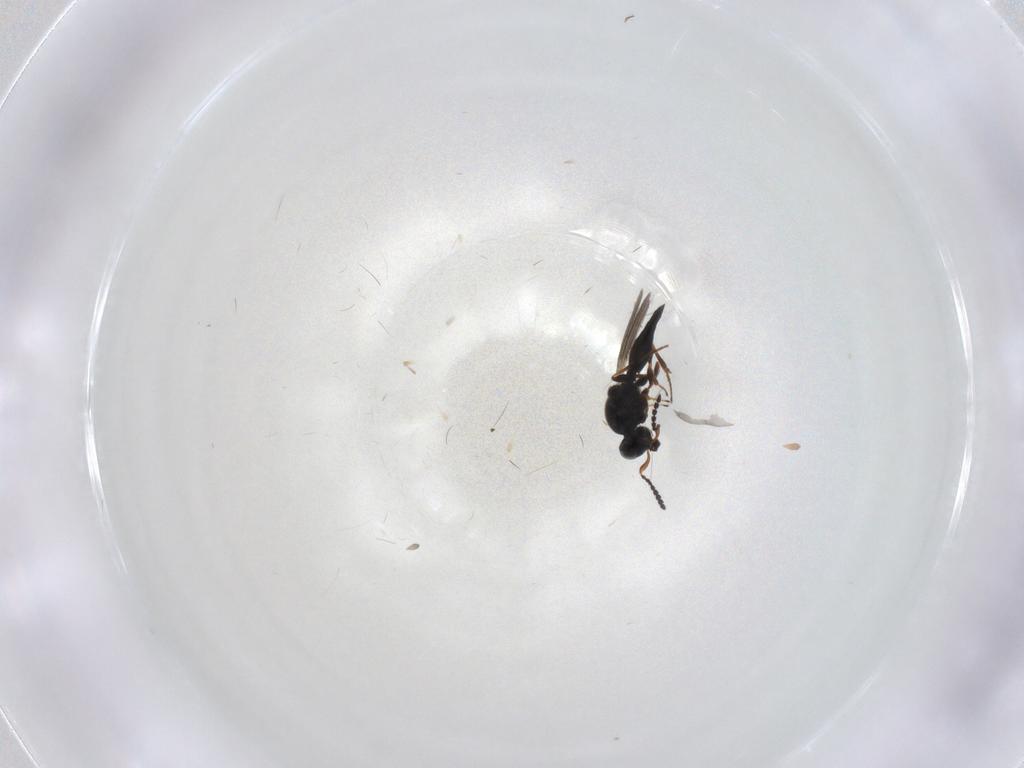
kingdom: Animalia
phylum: Arthropoda
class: Insecta
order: Hymenoptera
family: Platygastridae
